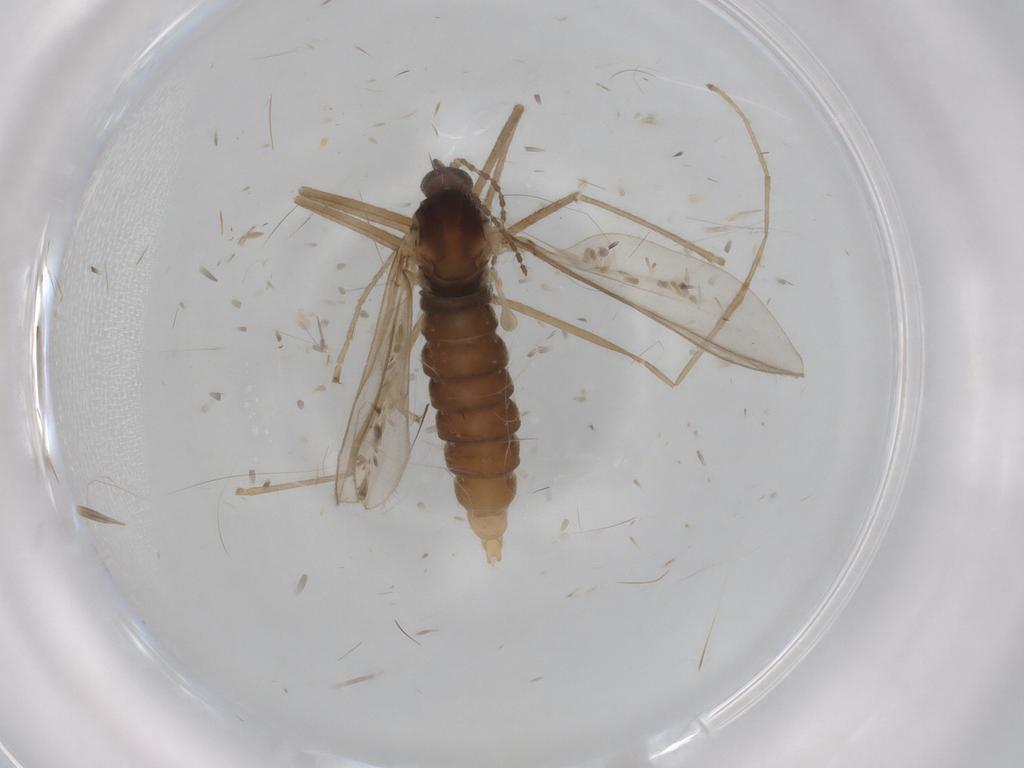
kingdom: Animalia
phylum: Arthropoda
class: Insecta
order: Diptera
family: Cecidomyiidae
